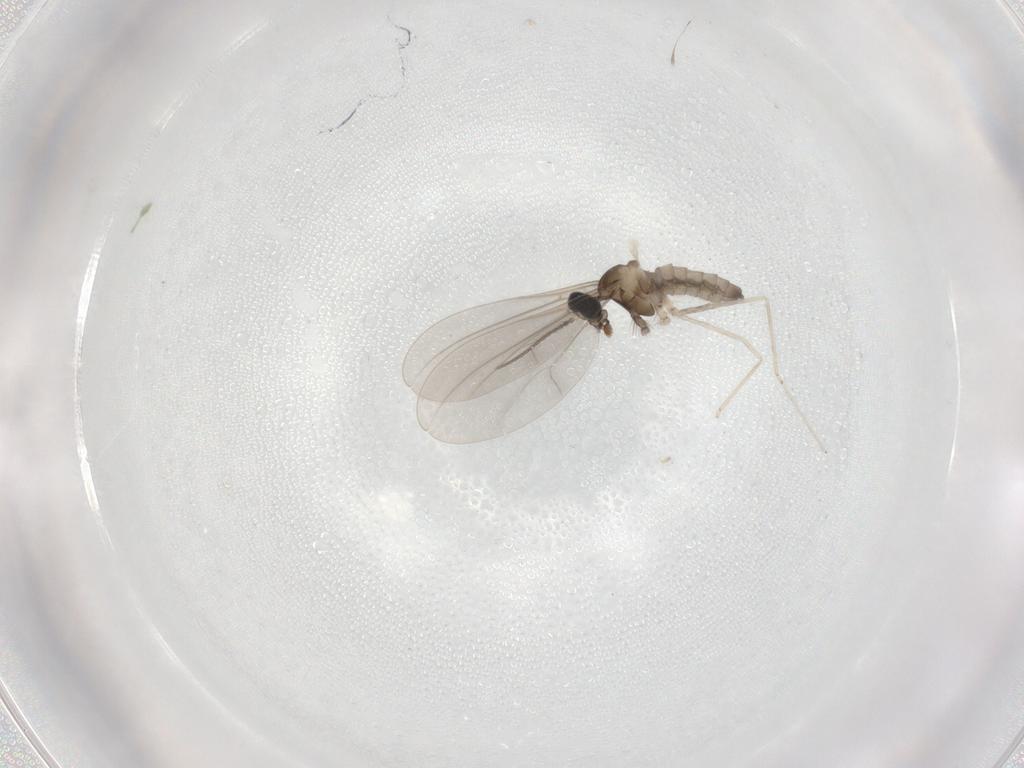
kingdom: Animalia
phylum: Arthropoda
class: Insecta
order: Diptera
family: Cecidomyiidae
